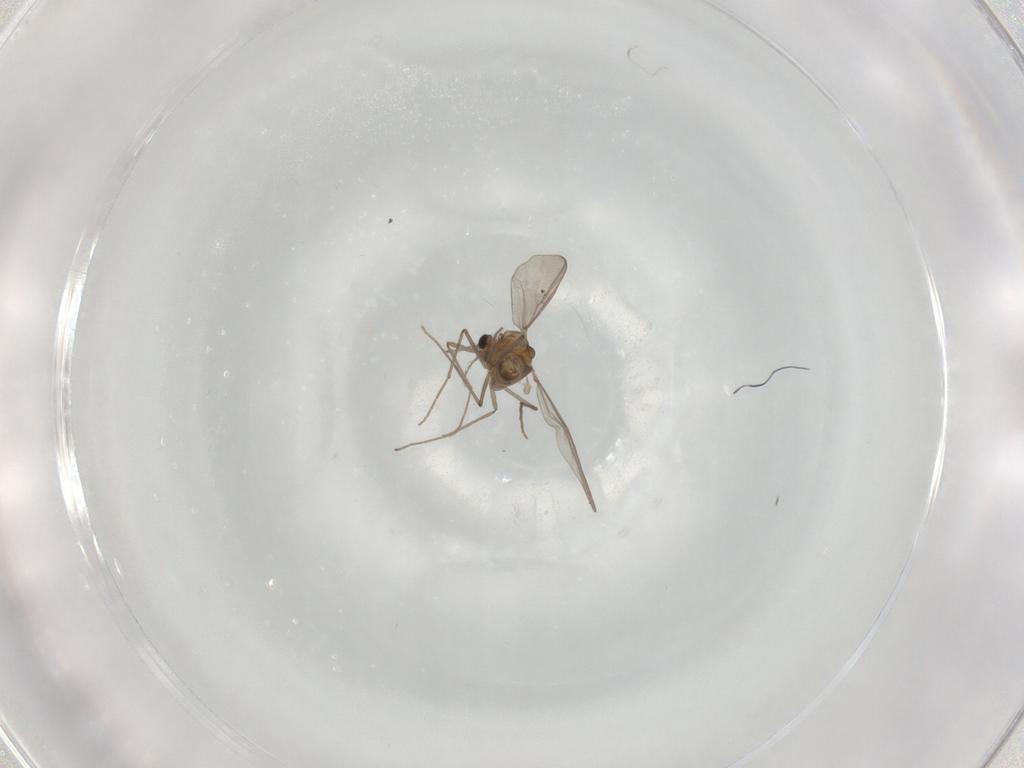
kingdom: Animalia
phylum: Arthropoda
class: Insecta
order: Diptera
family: Chironomidae
